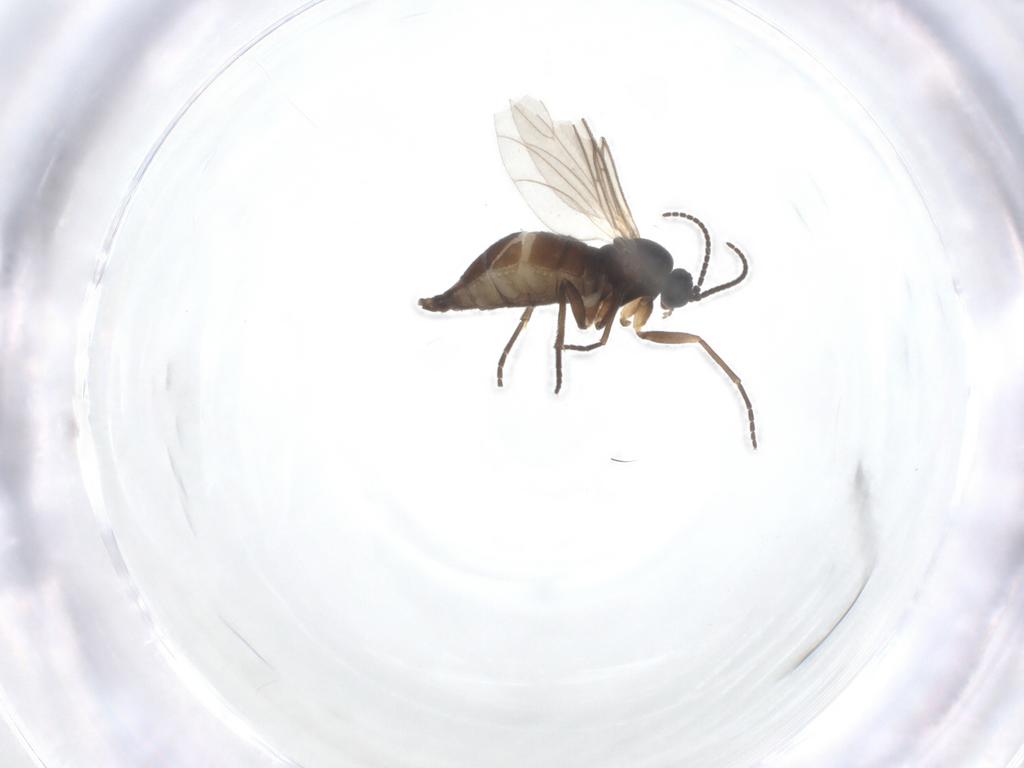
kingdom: Animalia
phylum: Arthropoda
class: Insecta
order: Diptera
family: Sciaridae
